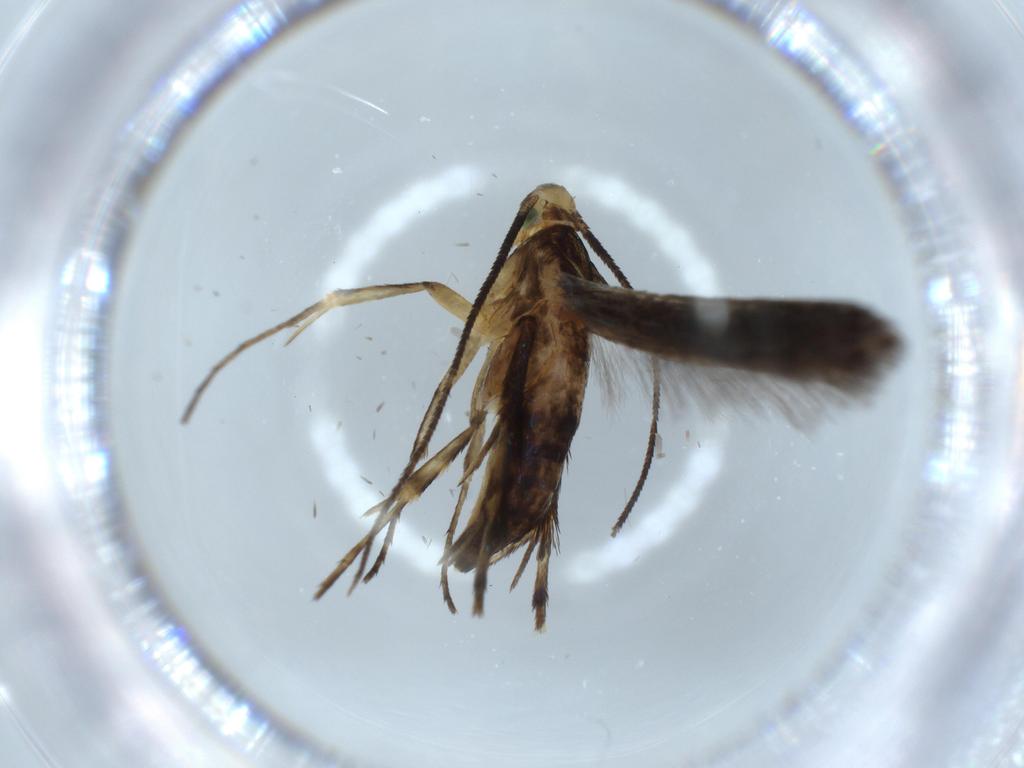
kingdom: Animalia
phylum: Arthropoda
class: Insecta
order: Lepidoptera
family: Heliodinidae
